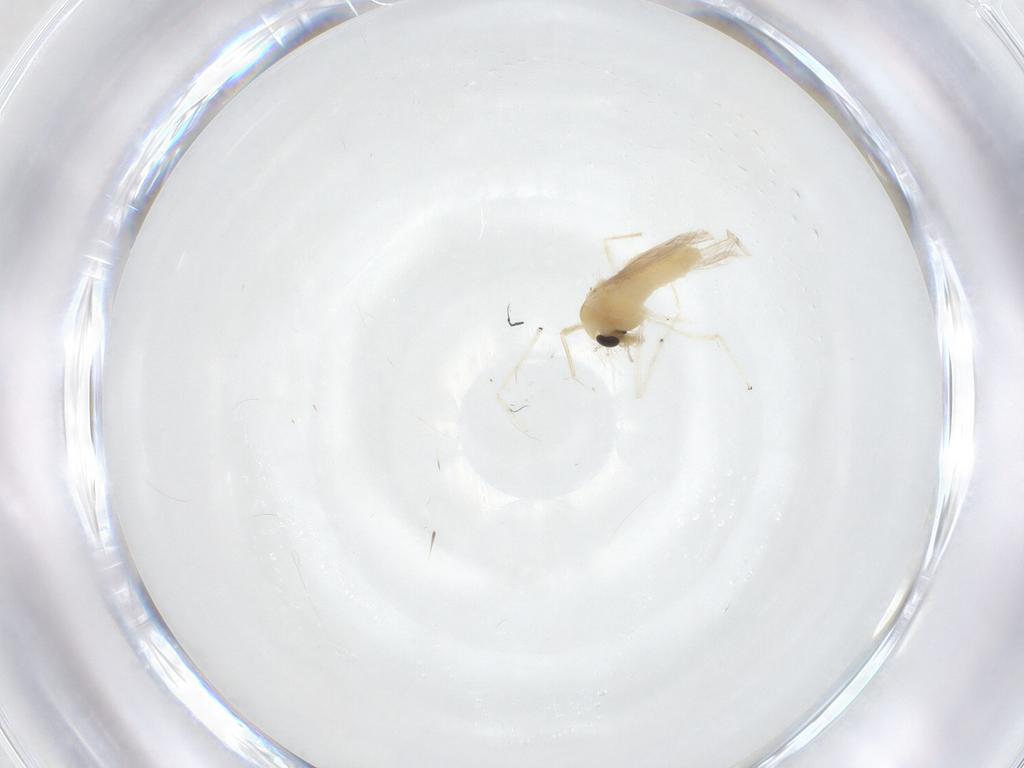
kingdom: Animalia
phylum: Arthropoda
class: Insecta
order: Diptera
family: Chironomidae
